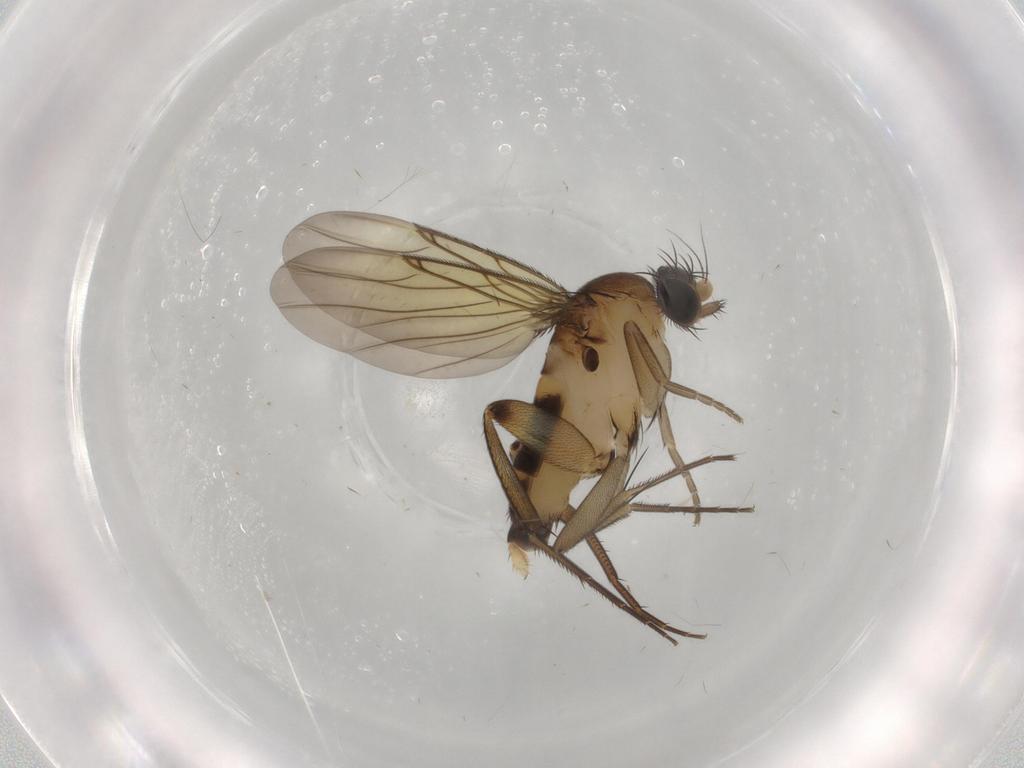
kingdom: Animalia
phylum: Arthropoda
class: Insecta
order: Diptera
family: Phoridae
